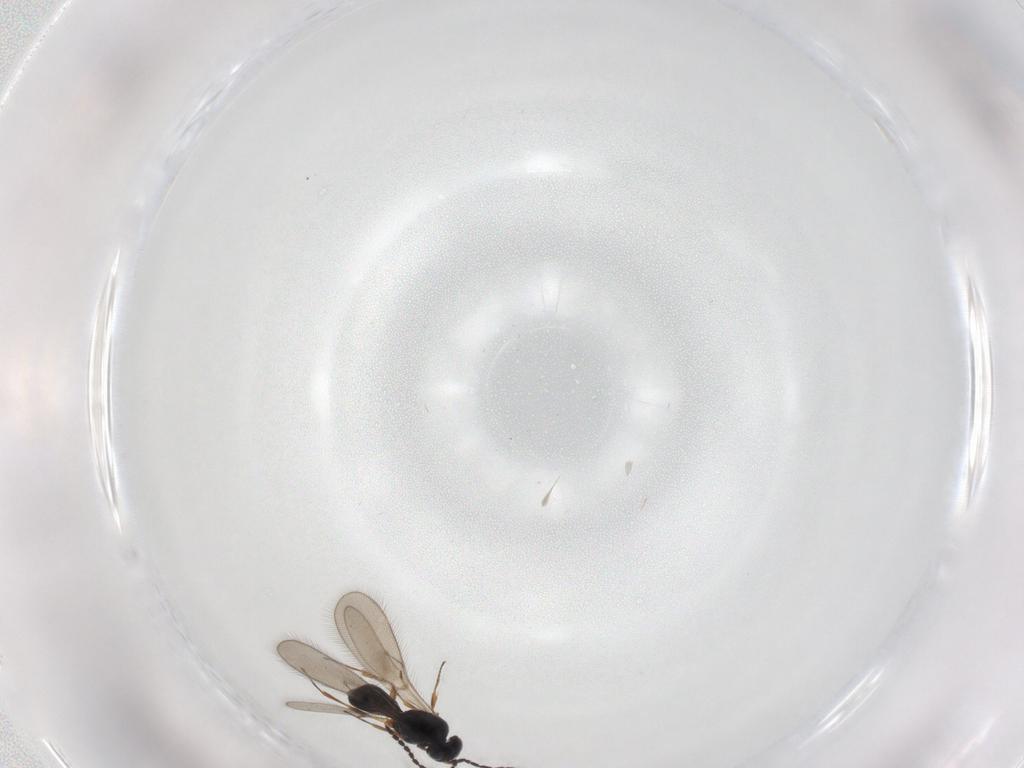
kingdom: Animalia
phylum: Arthropoda
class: Insecta
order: Hymenoptera
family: Scelionidae
